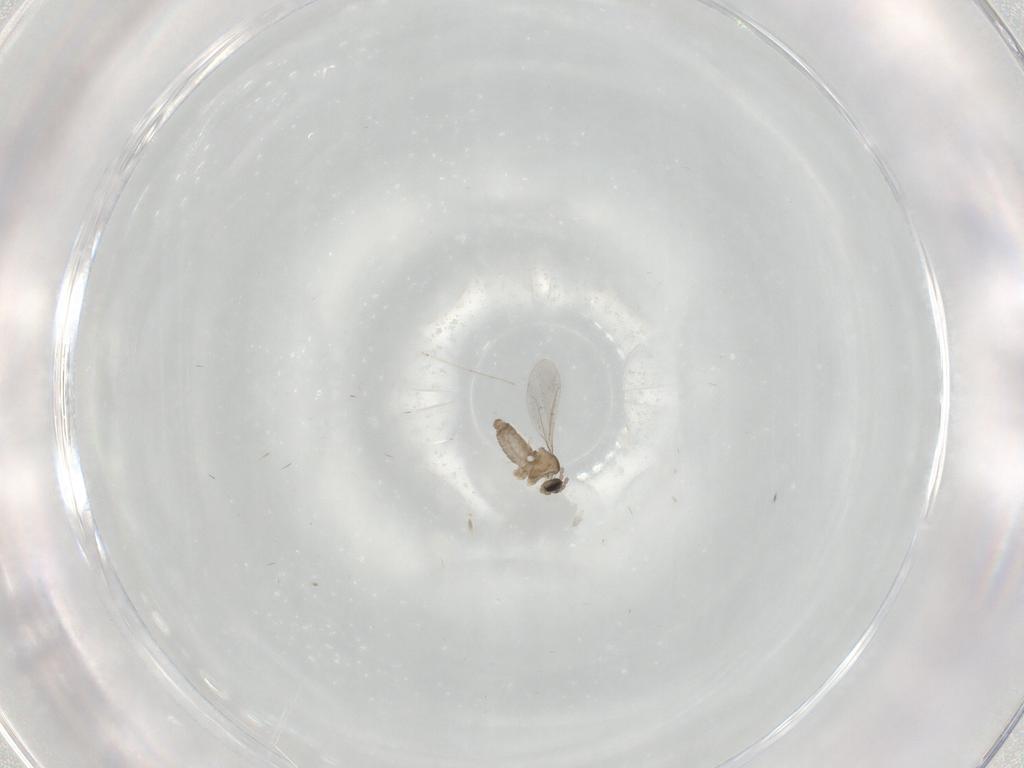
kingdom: Animalia
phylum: Arthropoda
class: Insecta
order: Diptera
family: Cecidomyiidae
